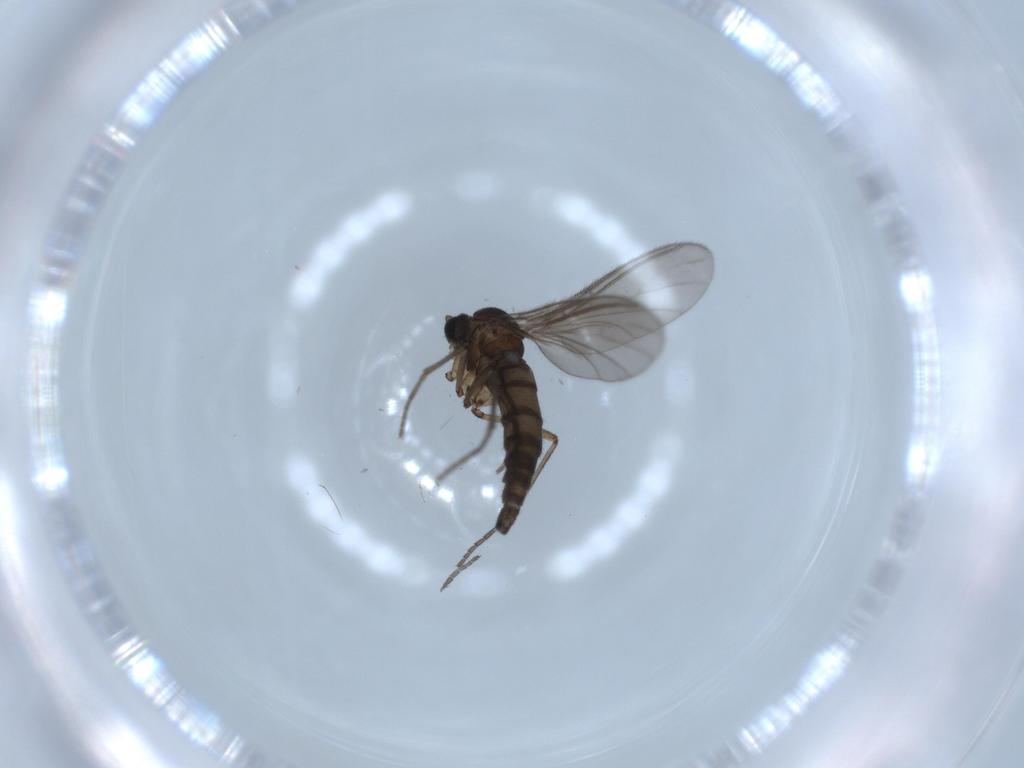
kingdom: Animalia
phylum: Arthropoda
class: Insecta
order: Diptera
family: Sciaridae
